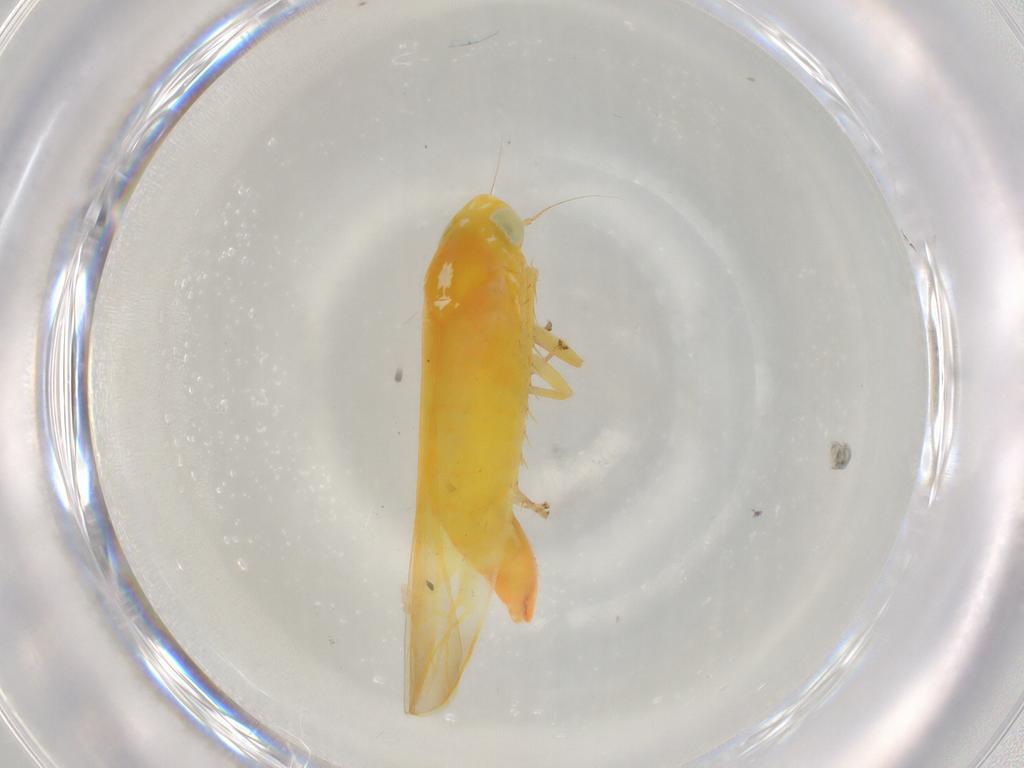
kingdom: Animalia
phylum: Arthropoda
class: Insecta
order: Hemiptera
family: Cicadellidae
